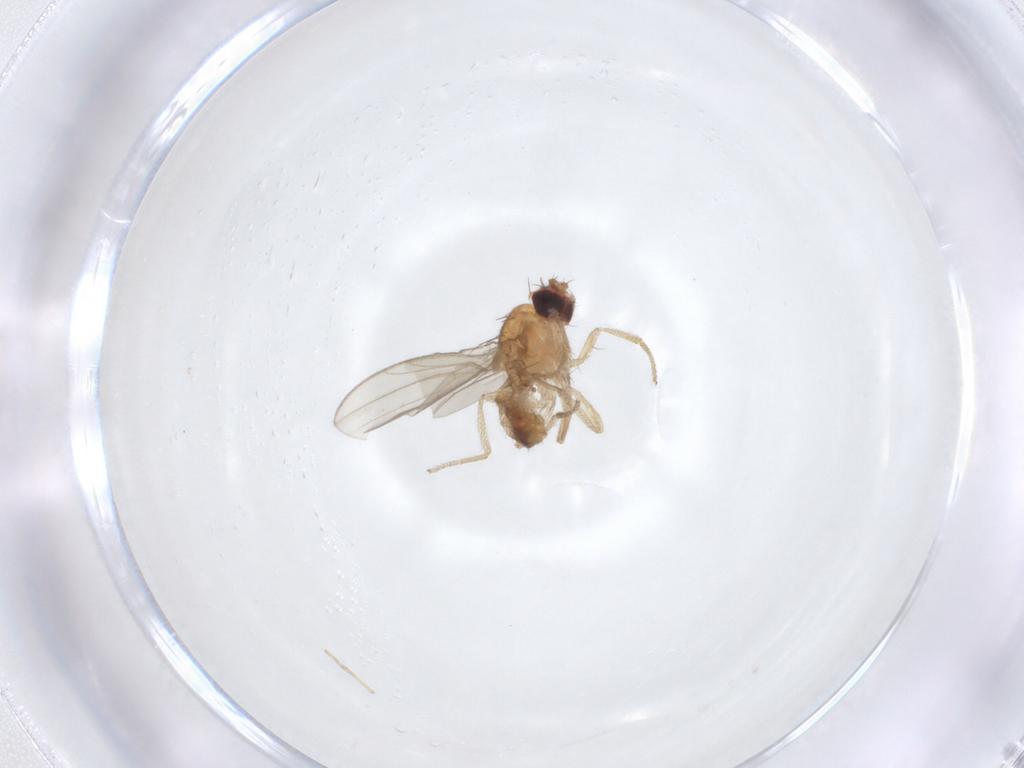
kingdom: Animalia
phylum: Arthropoda
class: Insecta
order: Diptera
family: Drosophilidae
